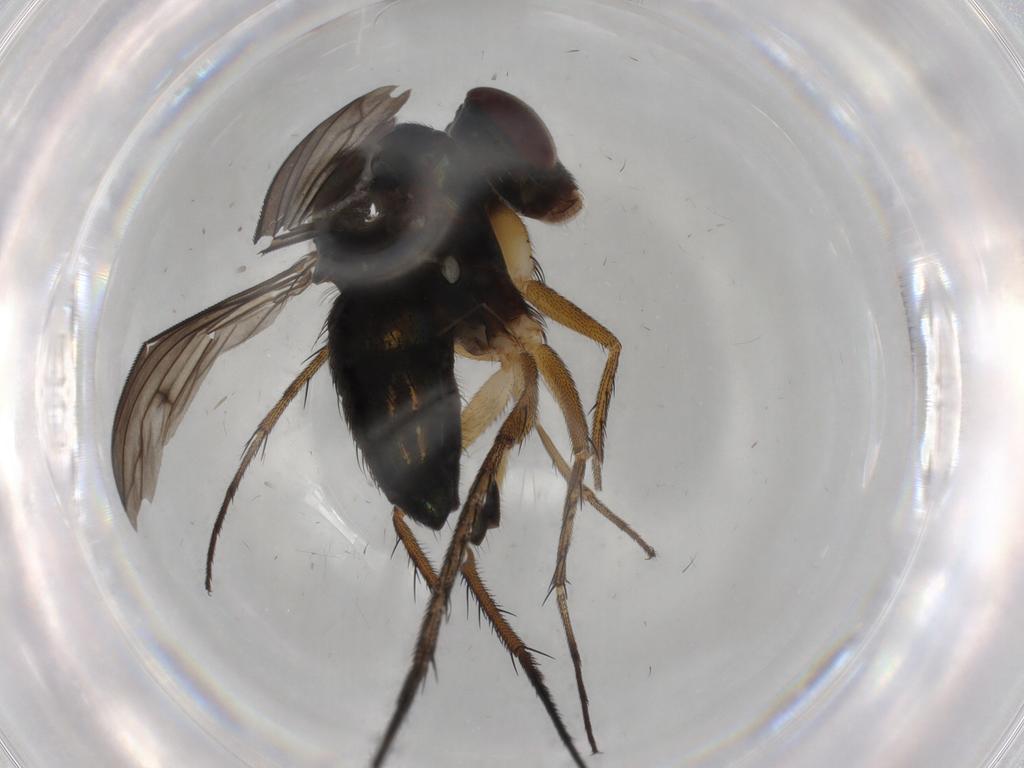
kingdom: Animalia
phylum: Arthropoda
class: Insecta
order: Diptera
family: Dolichopodidae
